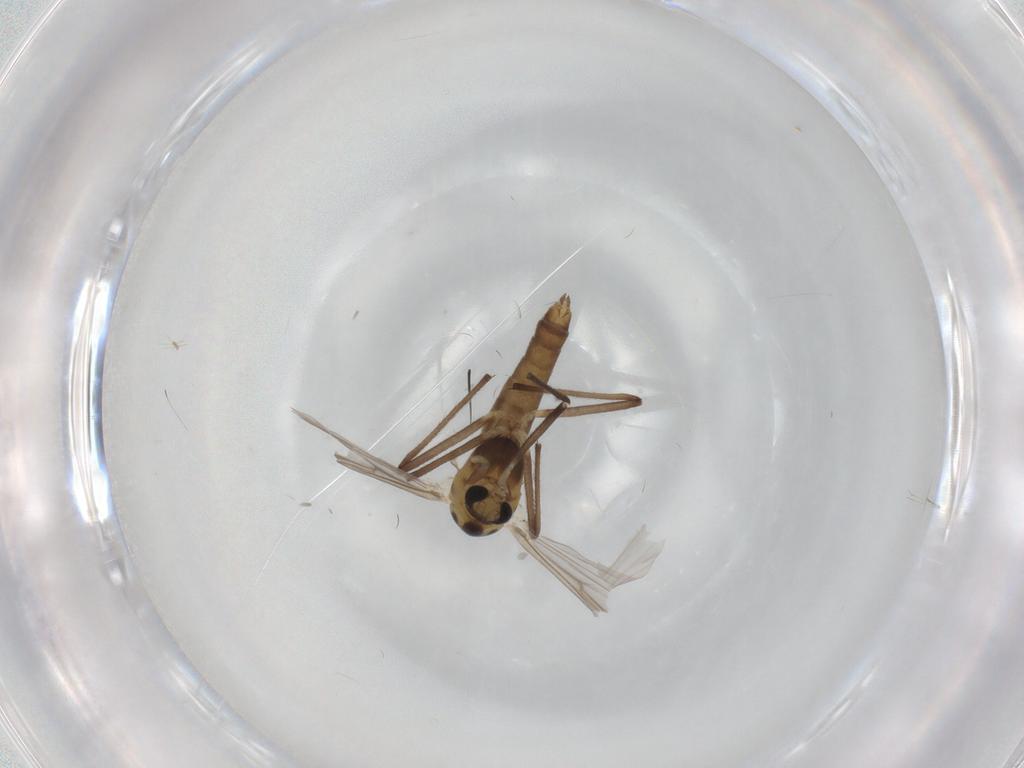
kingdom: Animalia
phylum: Arthropoda
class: Insecta
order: Diptera
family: Chironomidae
